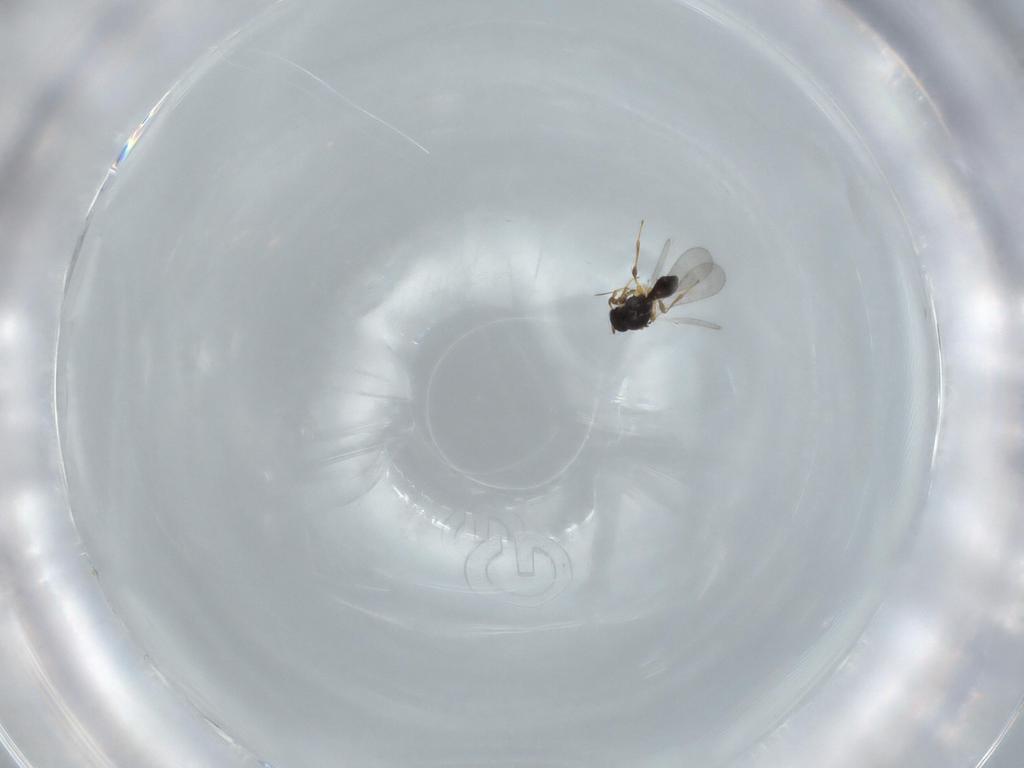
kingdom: Animalia
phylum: Arthropoda
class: Insecta
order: Hymenoptera
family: Platygastridae
